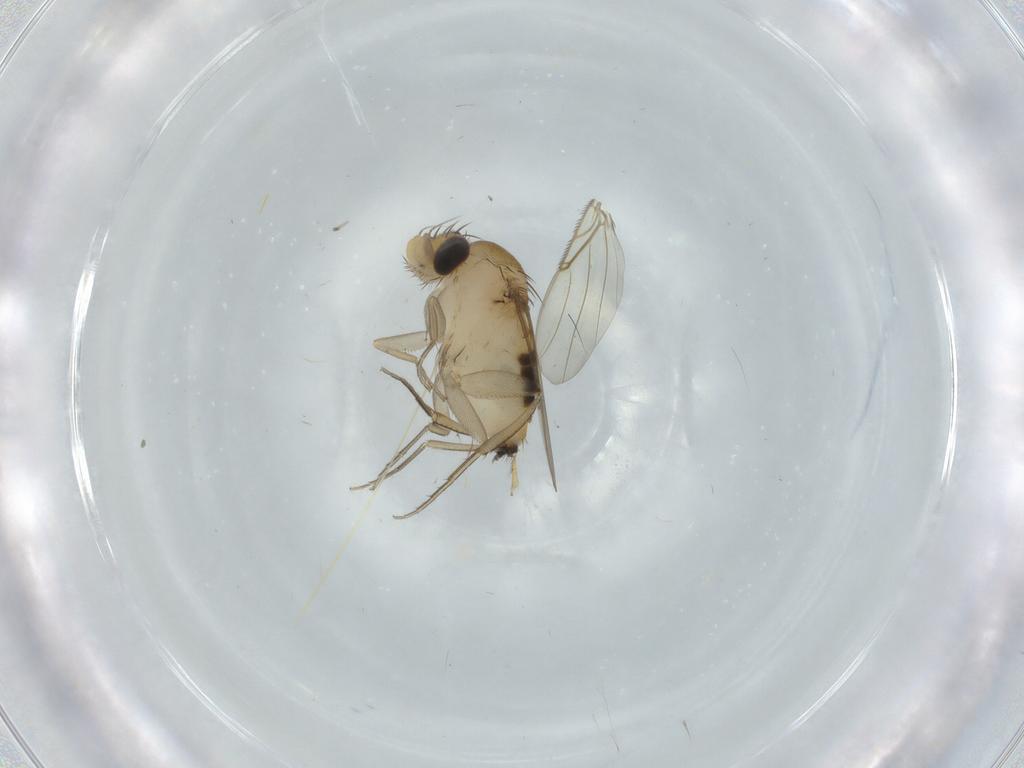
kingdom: Animalia
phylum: Arthropoda
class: Insecta
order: Diptera
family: Phoridae
